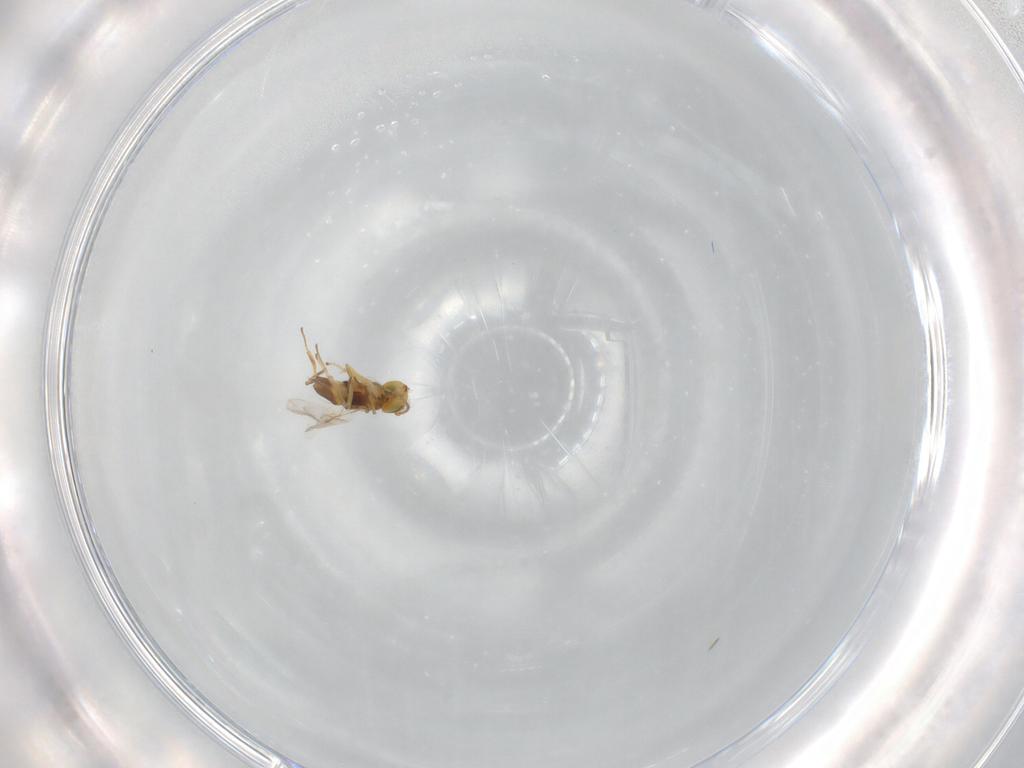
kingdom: Animalia
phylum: Arthropoda
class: Insecta
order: Hymenoptera
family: Encyrtidae
